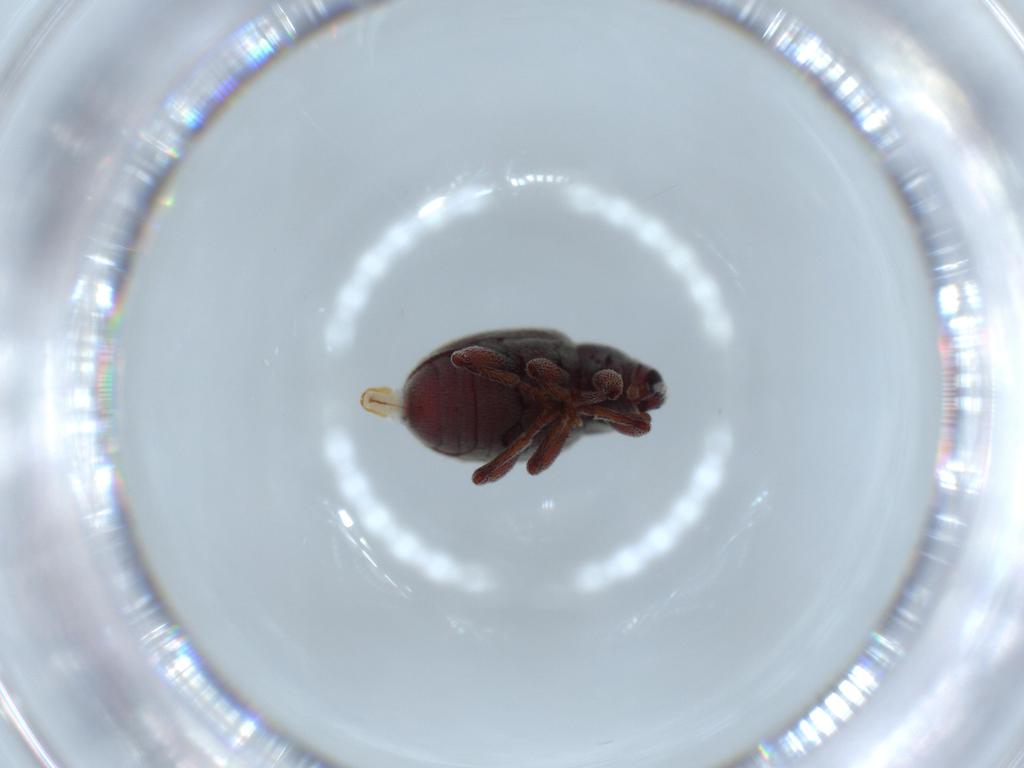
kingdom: Animalia
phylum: Arthropoda
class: Insecta
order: Coleoptera
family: Curculionidae
